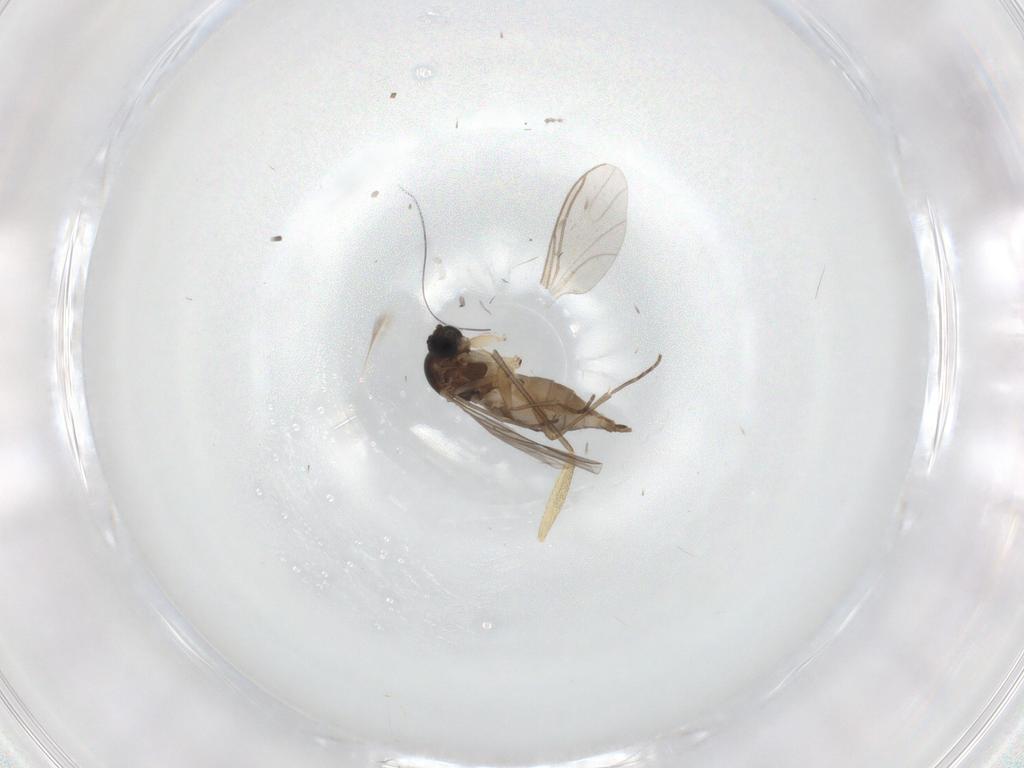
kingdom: Animalia
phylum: Arthropoda
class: Insecta
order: Diptera
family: Sciaridae
